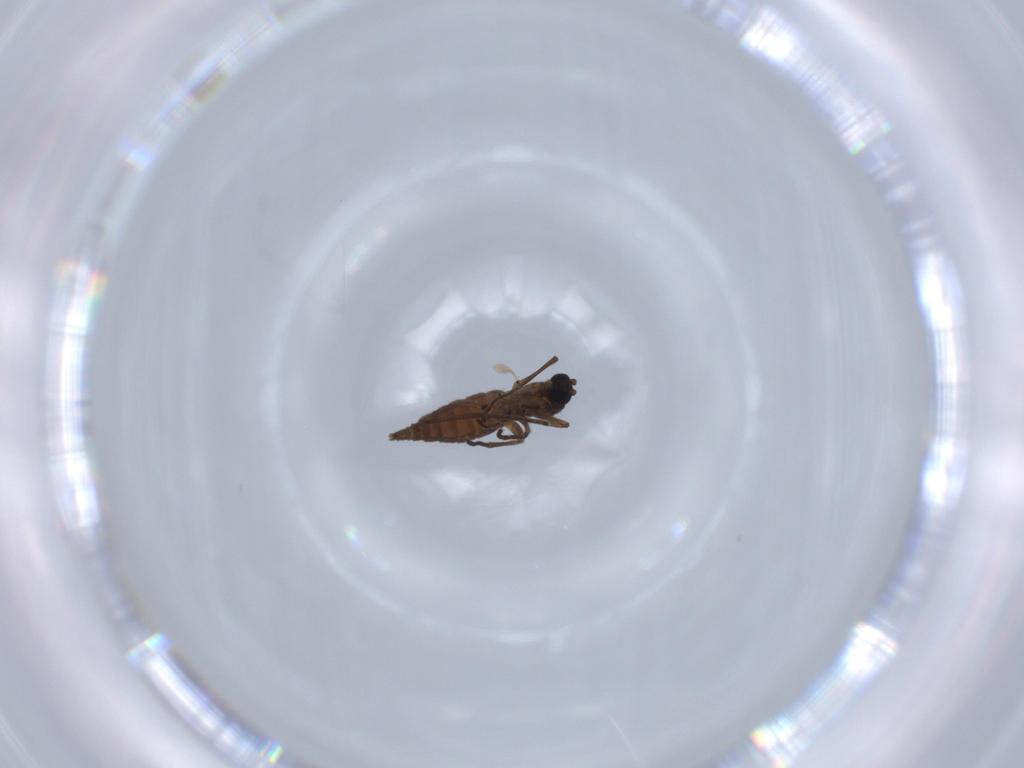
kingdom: Animalia
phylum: Arthropoda
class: Insecta
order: Diptera
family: Sciaridae
